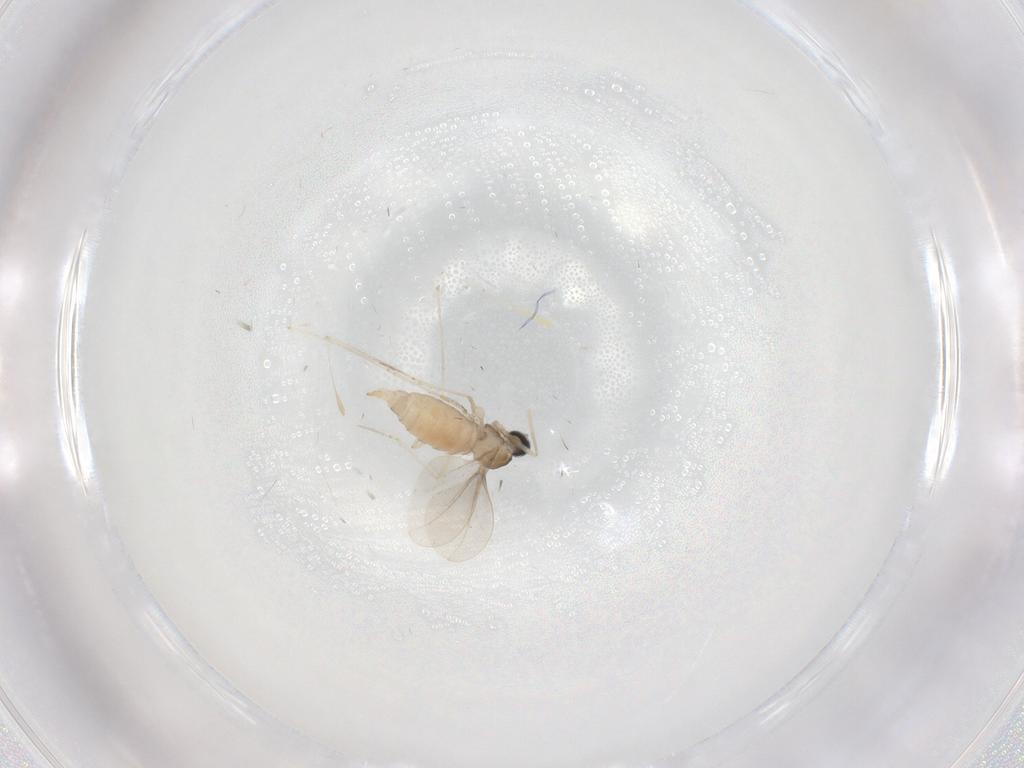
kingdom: Animalia
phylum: Arthropoda
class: Insecta
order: Diptera
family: Cecidomyiidae
